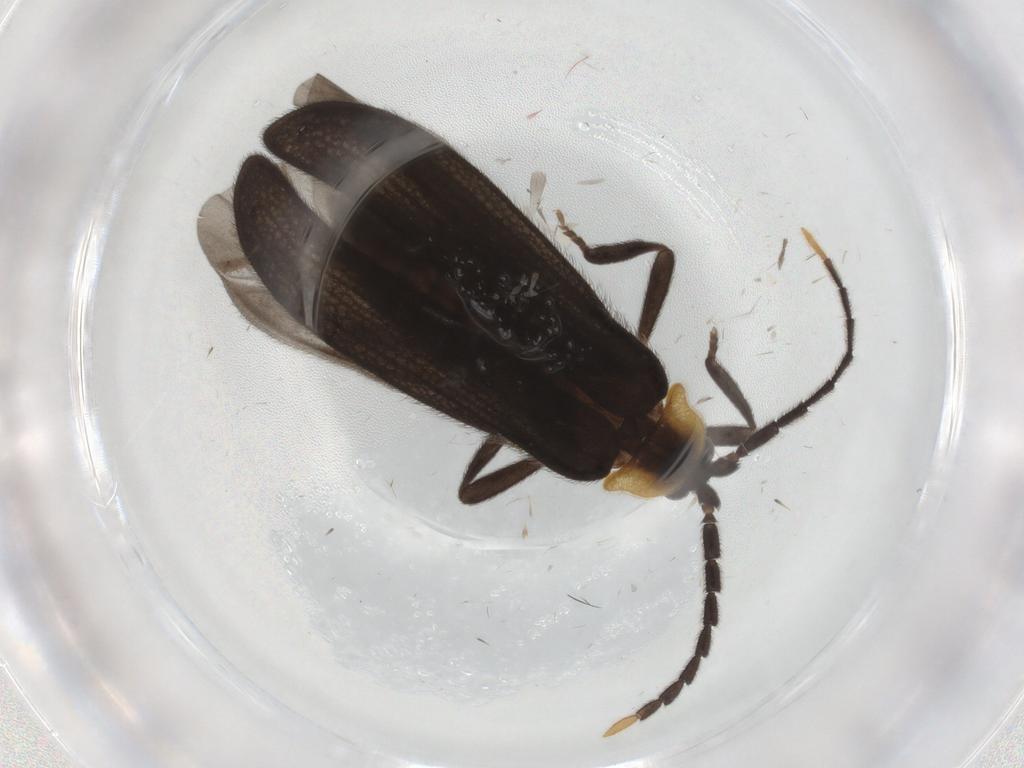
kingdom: Animalia
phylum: Arthropoda
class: Insecta
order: Coleoptera
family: Lycidae
